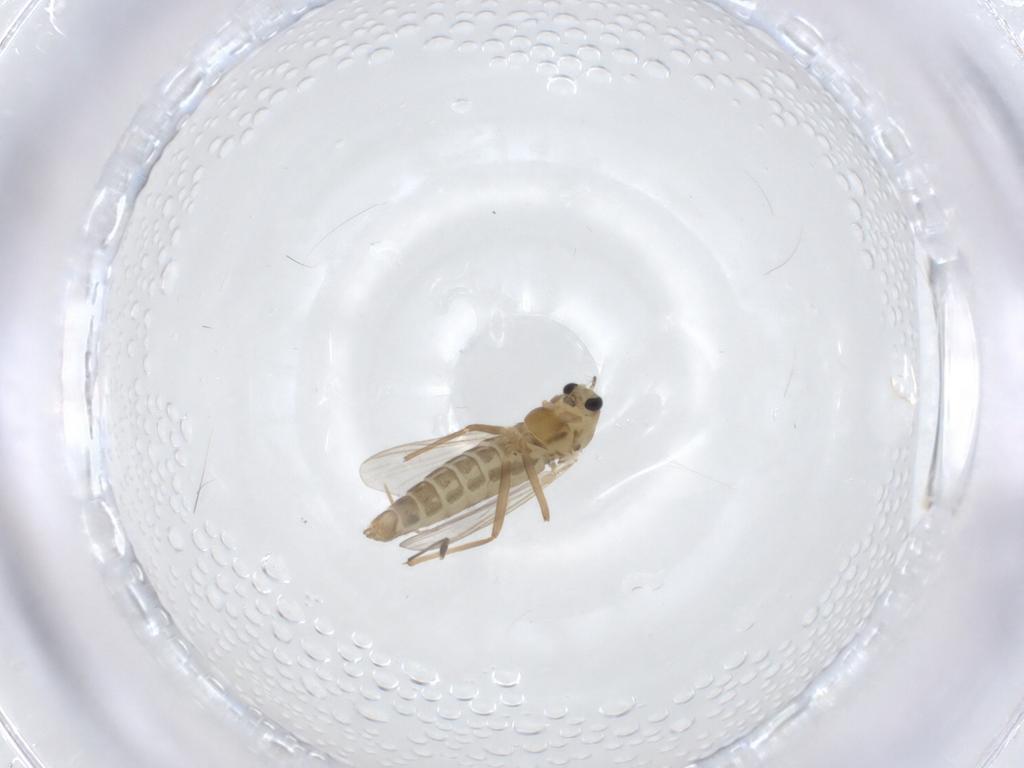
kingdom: Animalia
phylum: Arthropoda
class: Insecta
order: Diptera
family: Chironomidae
